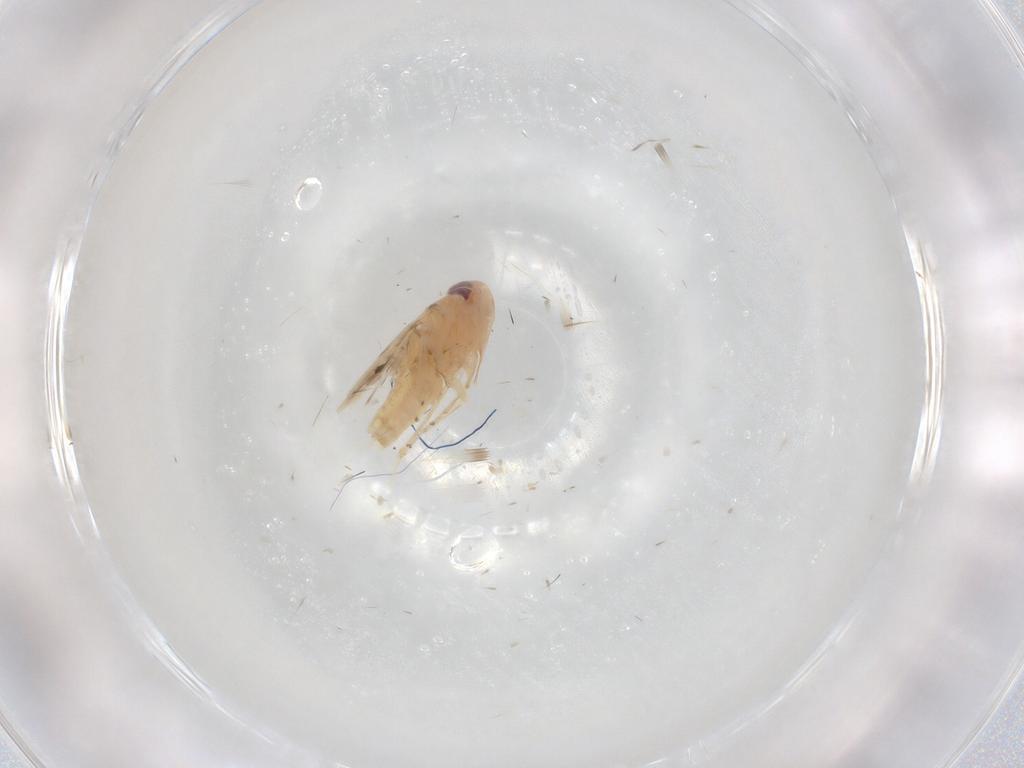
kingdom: Animalia
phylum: Arthropoda
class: Insecta
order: Hemiptera
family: Cicadellidae
